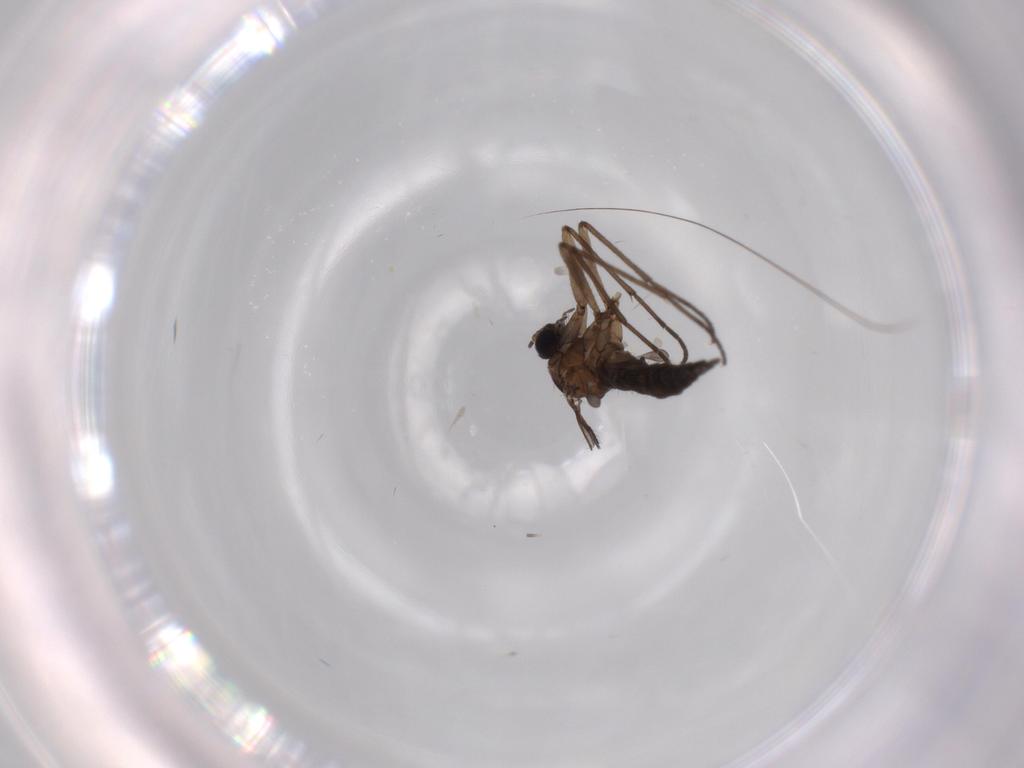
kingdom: Animalia
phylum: Arthropoda
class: Insecta
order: Diptera
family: Sciaridae
